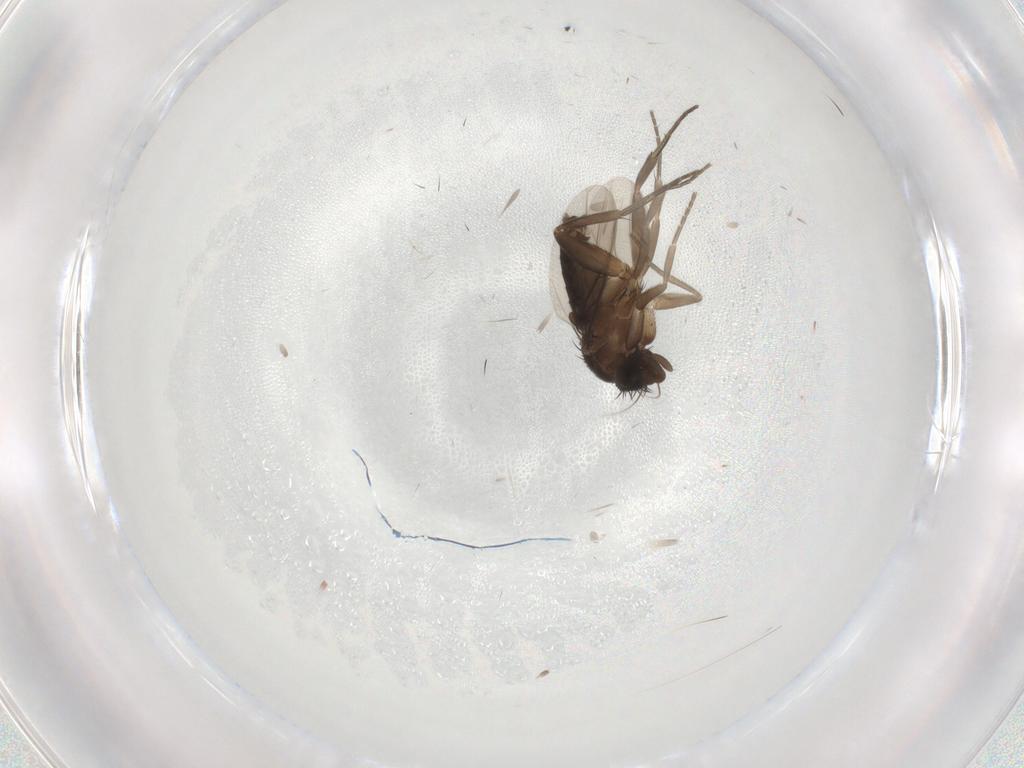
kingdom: Animalia
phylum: Arthropoda
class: Insecta
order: Diptera
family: Phoridae
